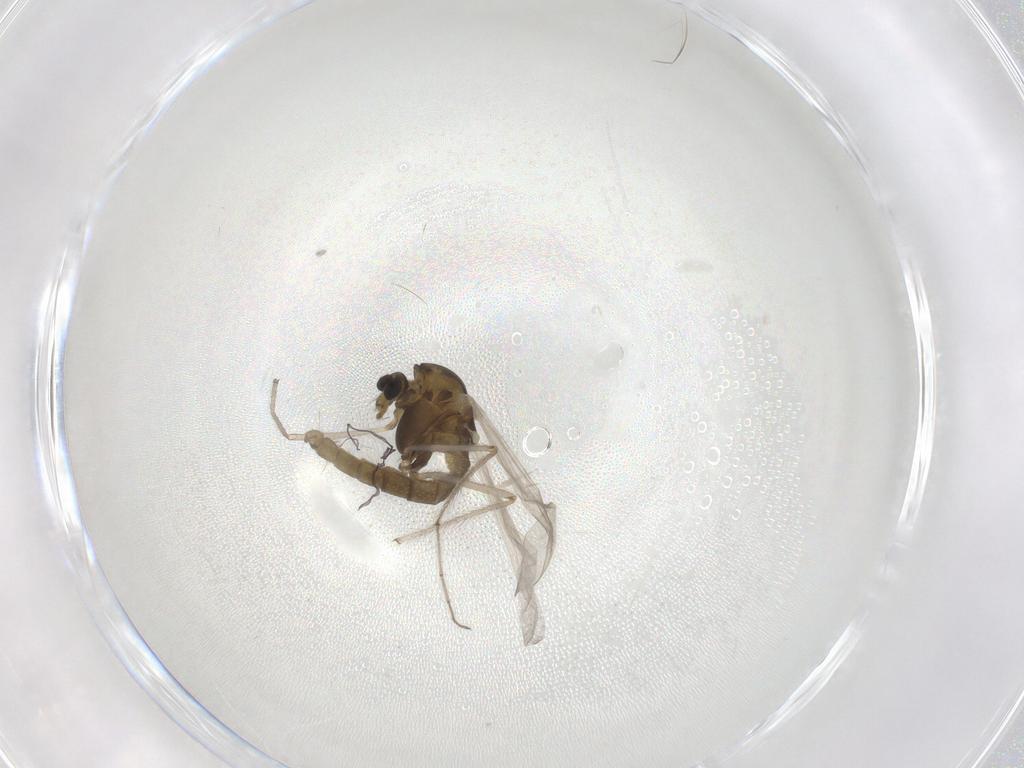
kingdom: Animalia
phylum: Arthropoda
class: Insecta
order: Diptera
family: Chironomidae
